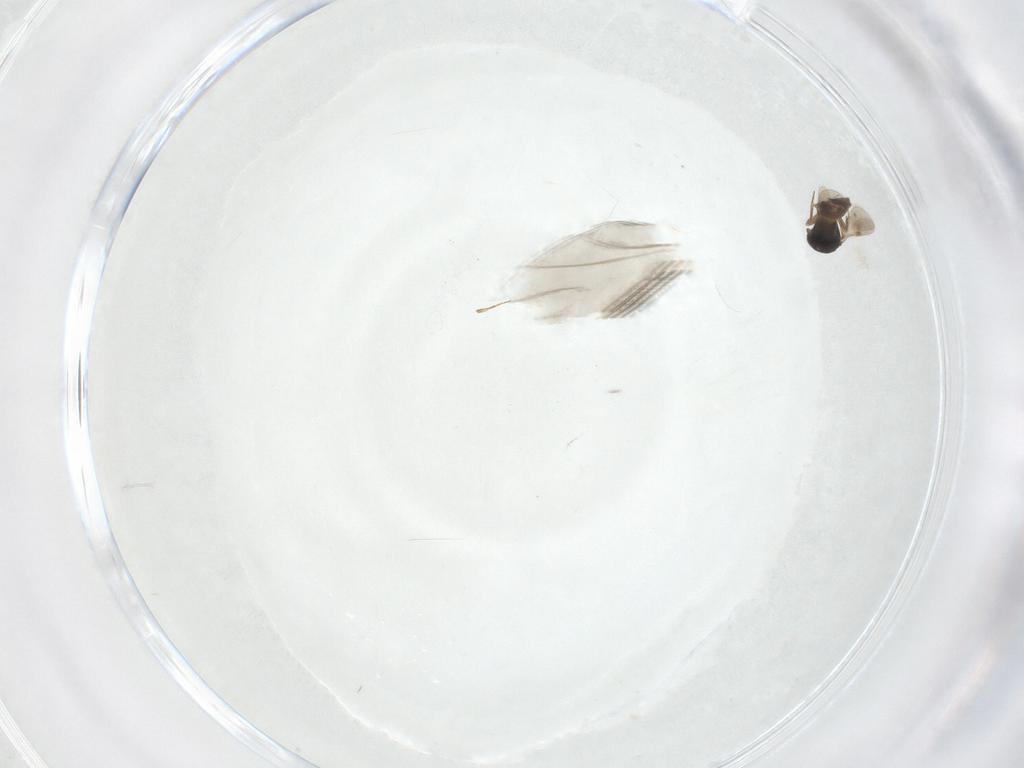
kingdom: Animalia
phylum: Arthropoda
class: Insecta
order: Hymenoptera
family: Scelionidae
